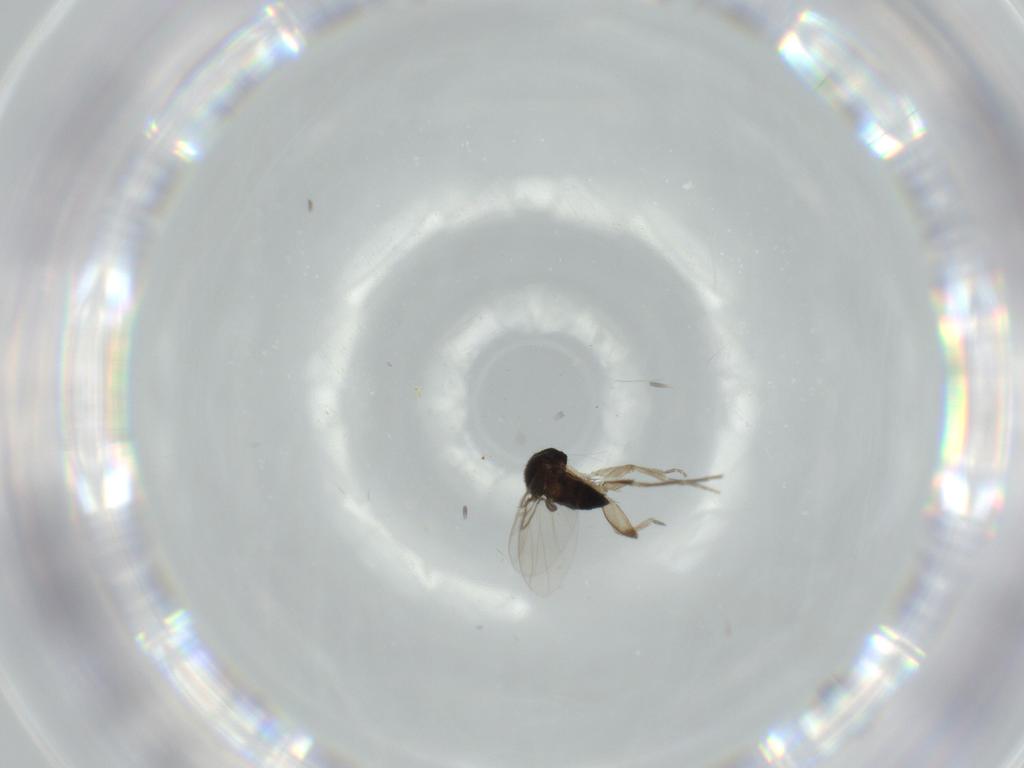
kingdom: Animalia
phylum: Arthropoda
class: Insecta
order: Diptera
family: Phoridae
